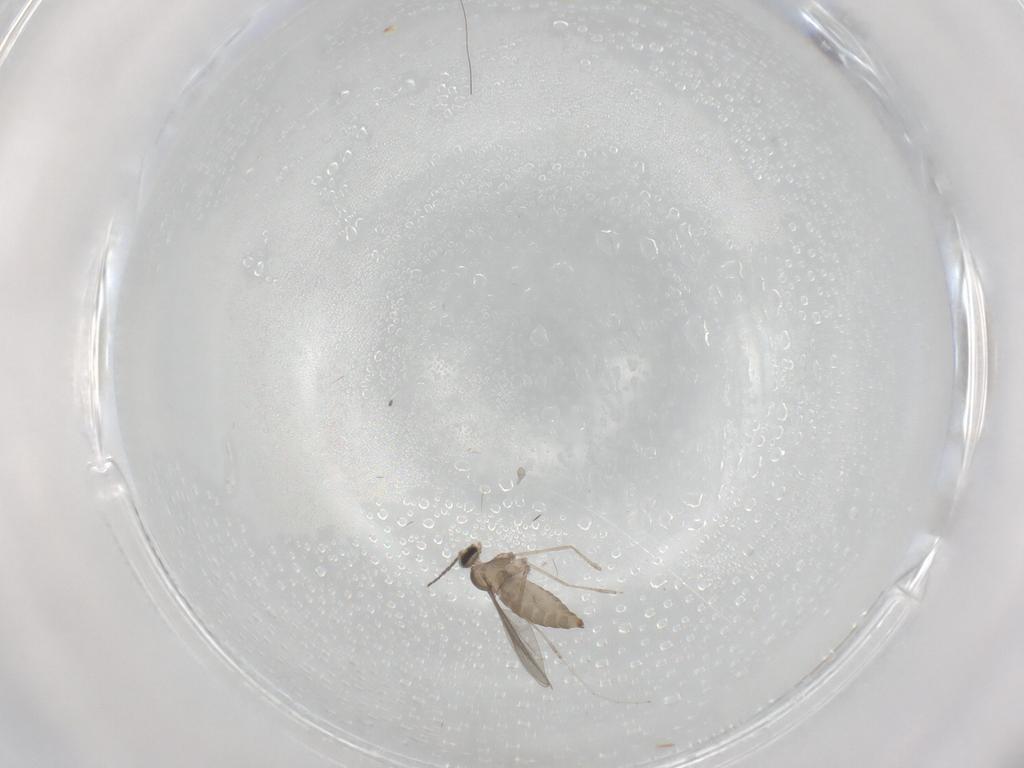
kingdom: Animalia
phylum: Arthropoda
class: Insecta
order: Diptera
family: Cecidomyiidae
